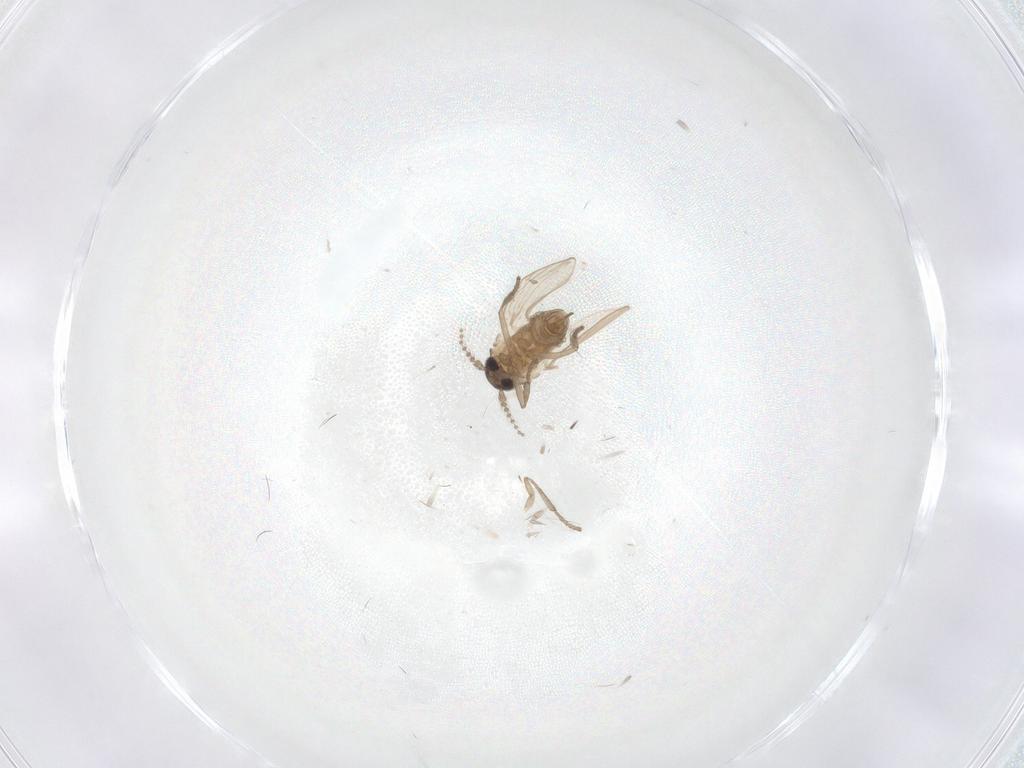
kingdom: Animalia
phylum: Arthropoda
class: Insecta
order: Diptera
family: Psychodidae
